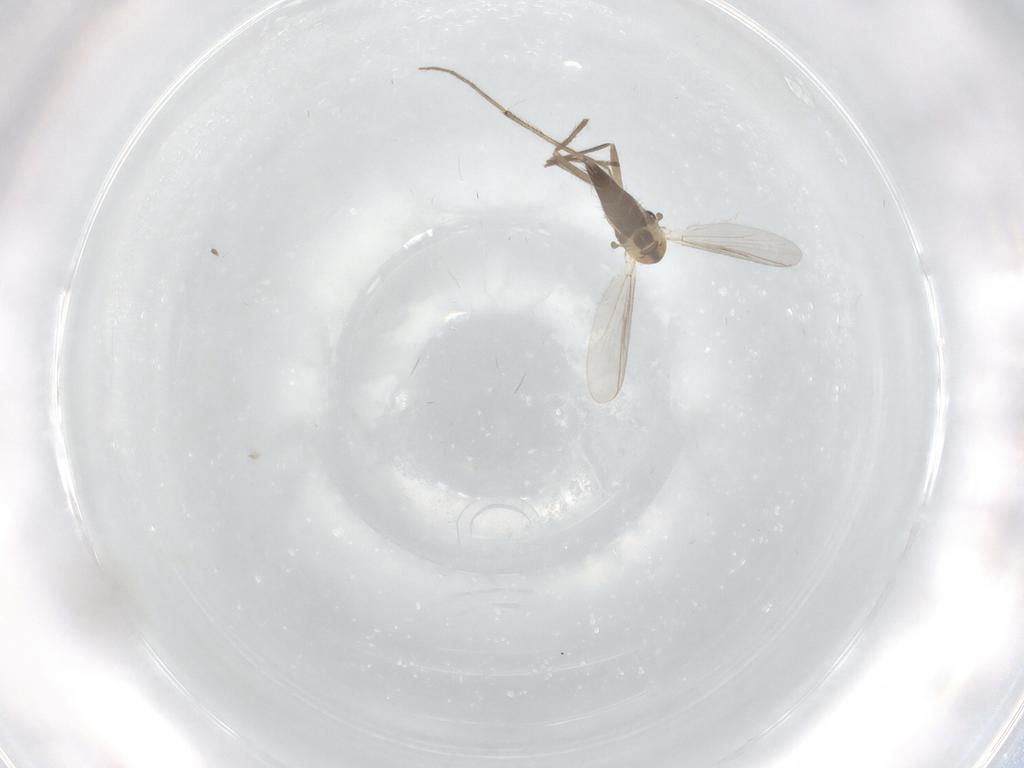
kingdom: Animalia
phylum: Arthropoda
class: Insecta
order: Diptera
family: Chironomidae
